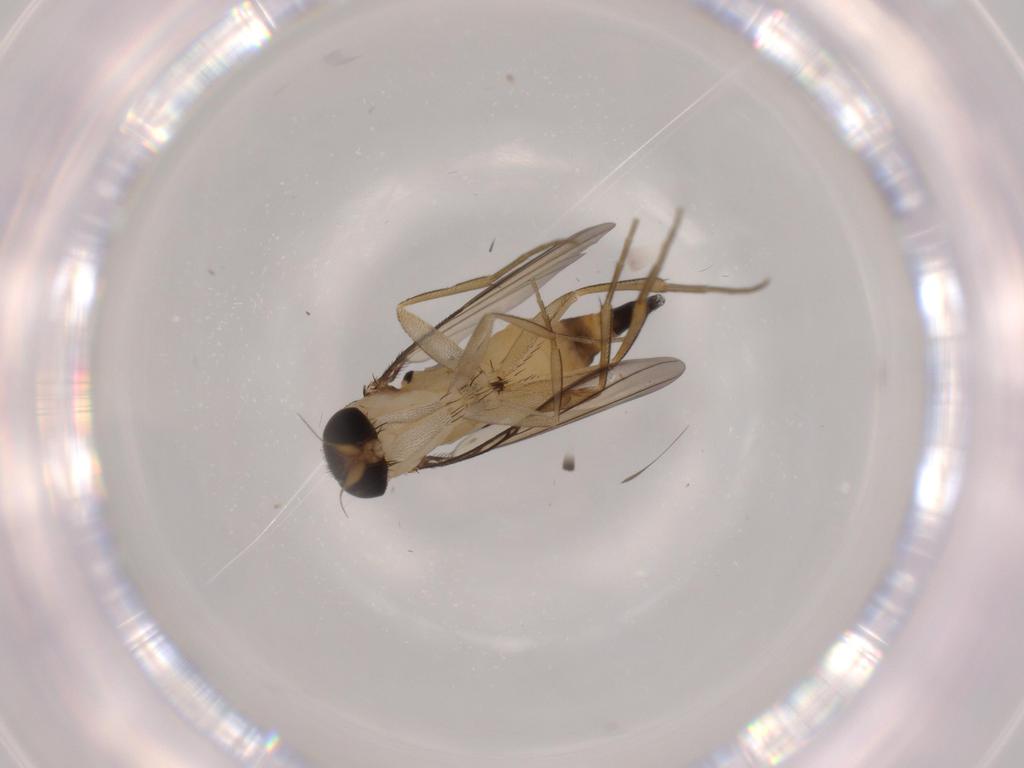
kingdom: Animalia
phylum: Arthropoda
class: Insecta
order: Diptera
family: Phoridae
